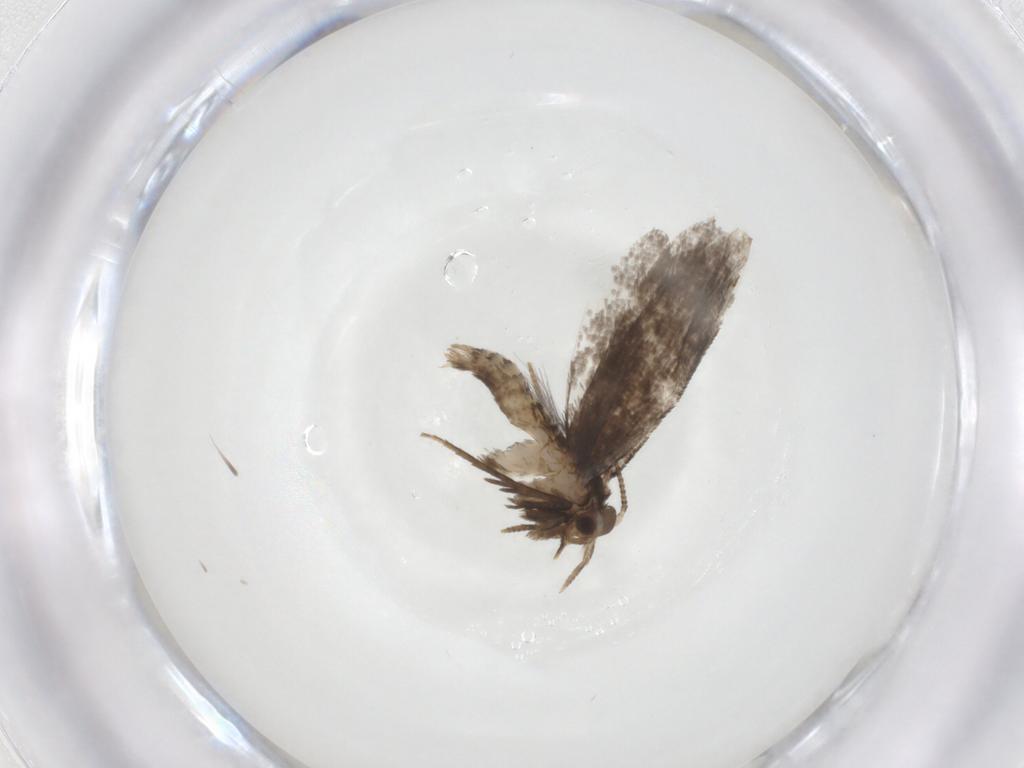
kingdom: Animalia
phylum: Arthropoda
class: Insecta
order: Lepidoptera
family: Crambidae
